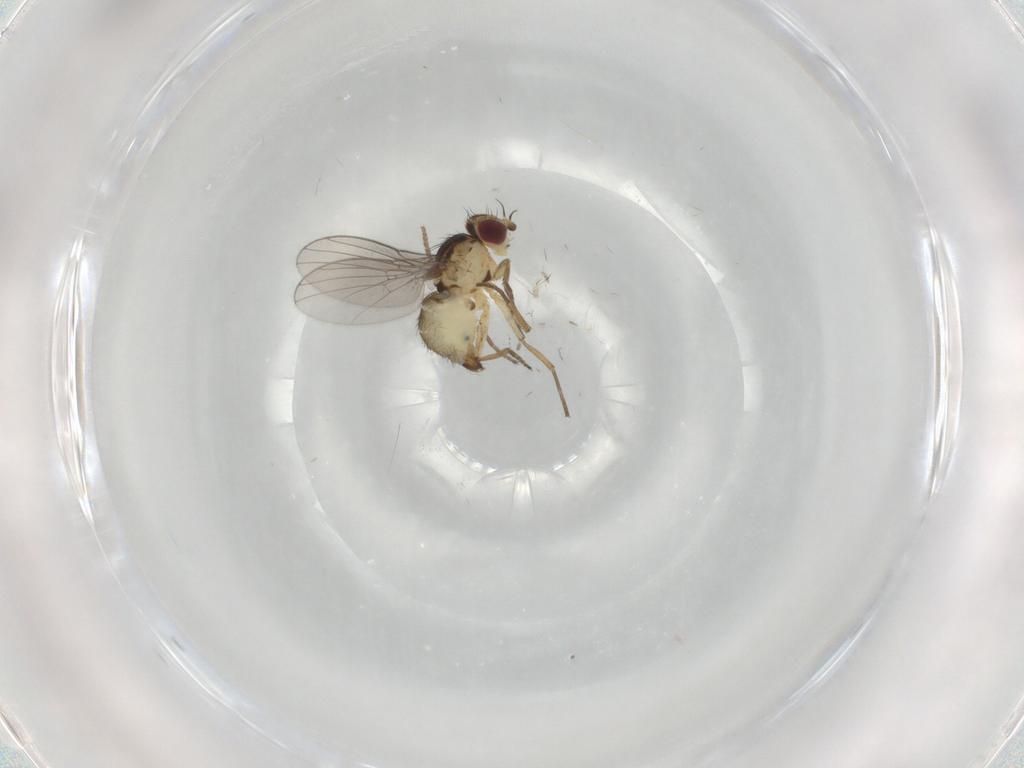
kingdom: Animalia
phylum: Arthropoda
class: Insecta
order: Diptera
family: Agromyzidae
